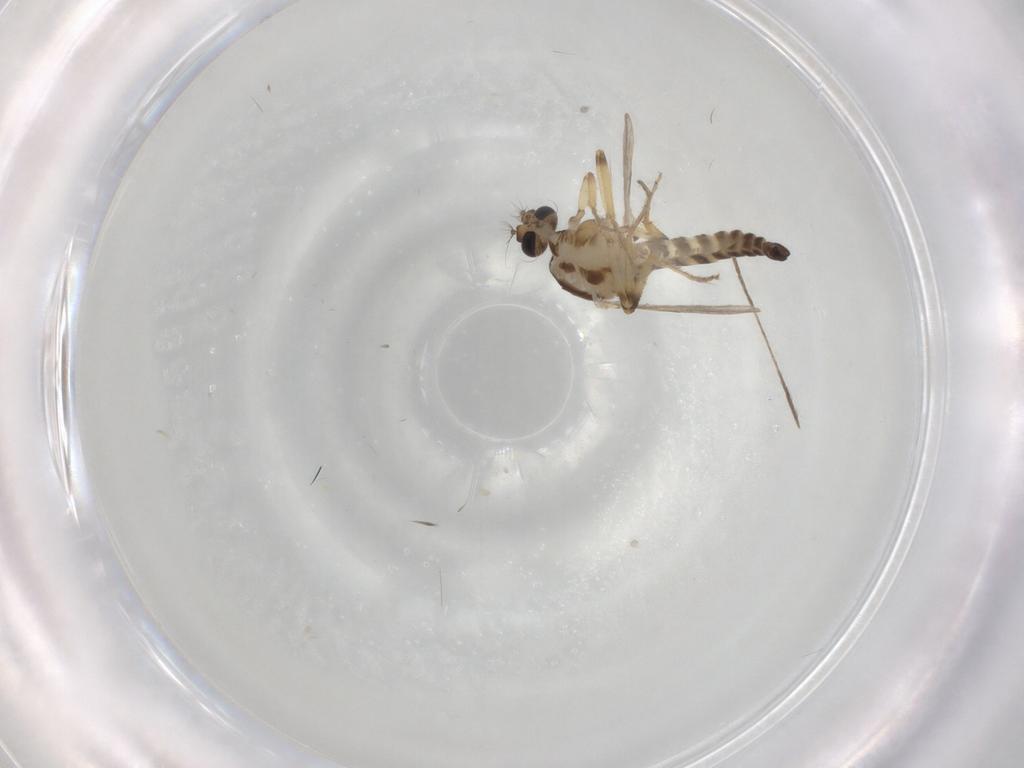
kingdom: Animalia
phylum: Arthropoda
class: Insecta
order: Diptera
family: Ceratopogonidae
